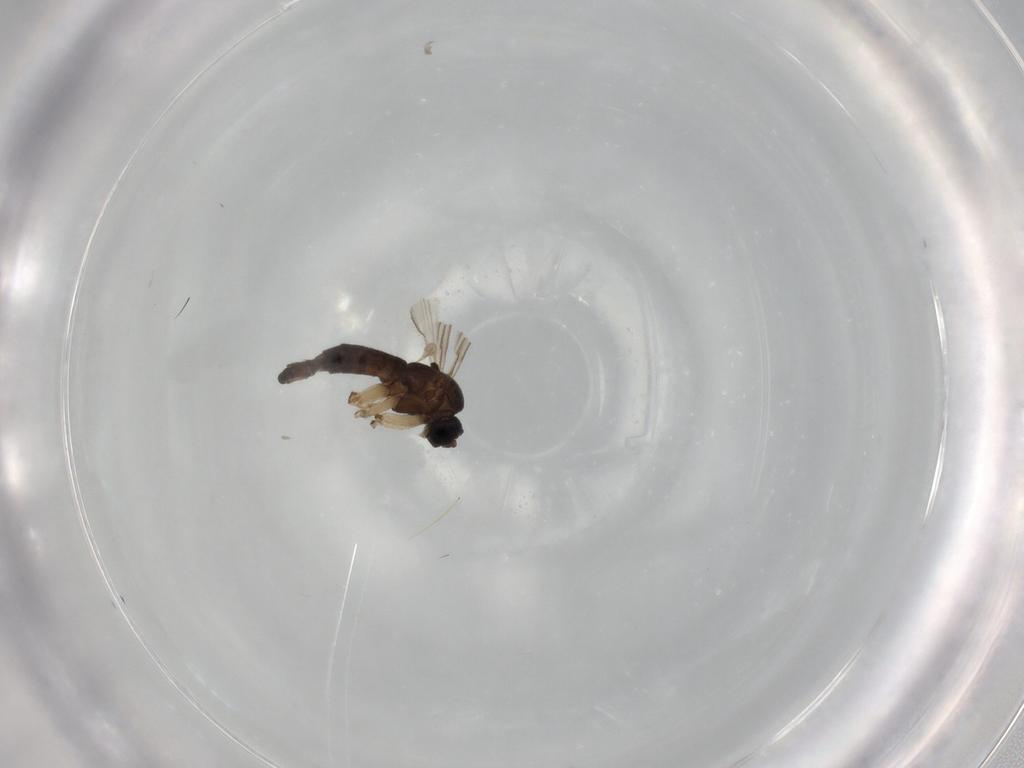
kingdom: Animalia
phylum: Arthropoda
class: Insecta
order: Diptera
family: Sciaridae
